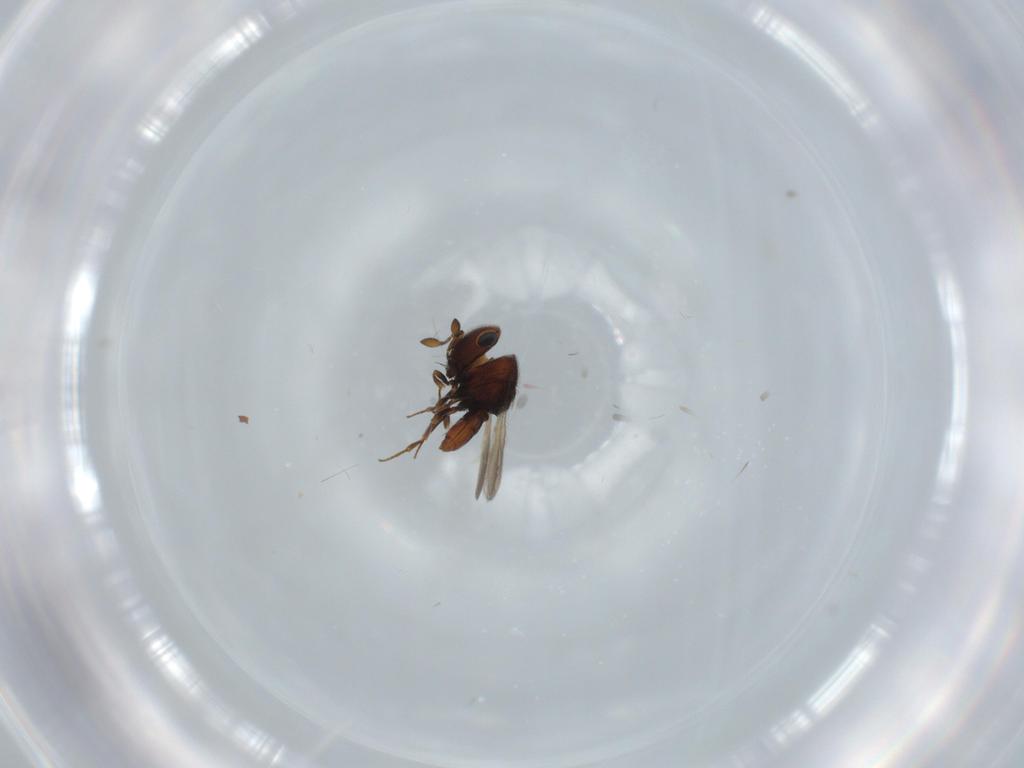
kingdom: Animalia
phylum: Arthropoda
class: Insecta
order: Hymenoptera
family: Scelionidae
